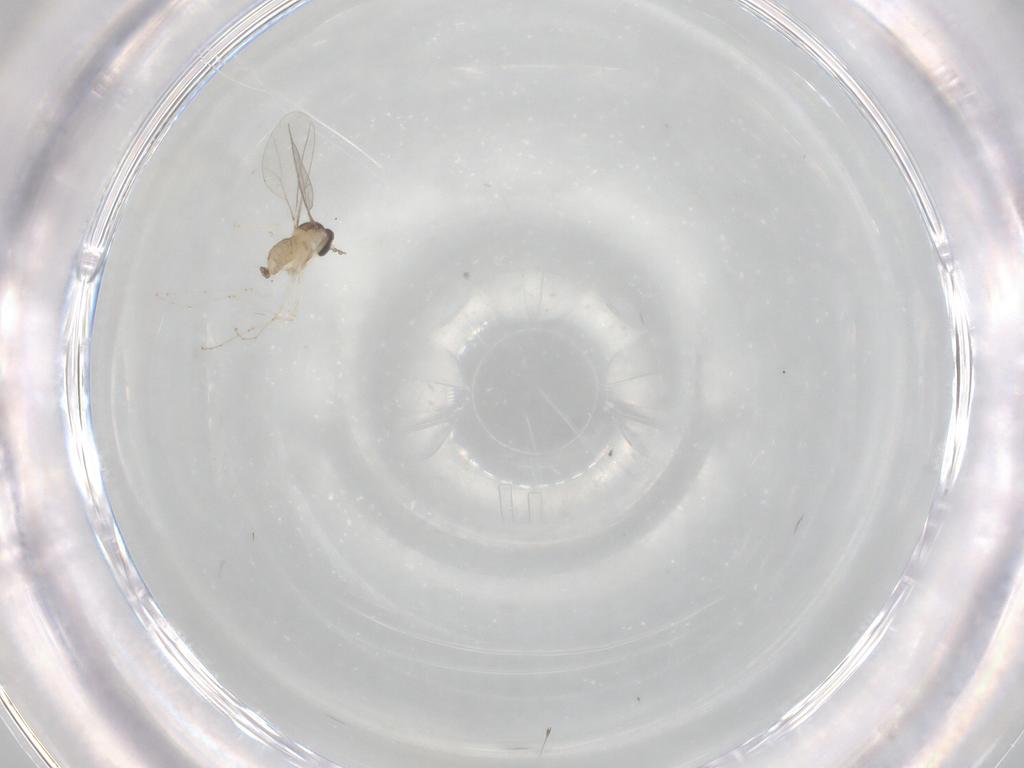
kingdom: Animalia
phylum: Arthropoda
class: Insecta
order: Diptera
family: Cecidomyiidae
